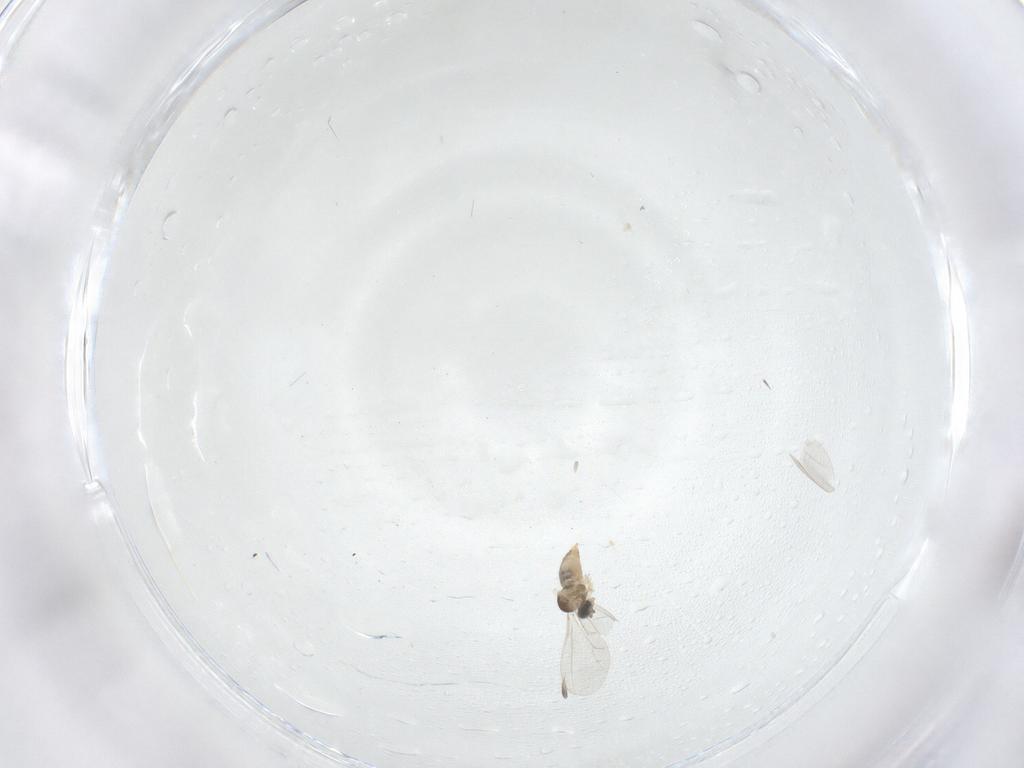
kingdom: Animalia
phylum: Arthropoda
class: Insecta
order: Diptera
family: Cecidomyiidae
